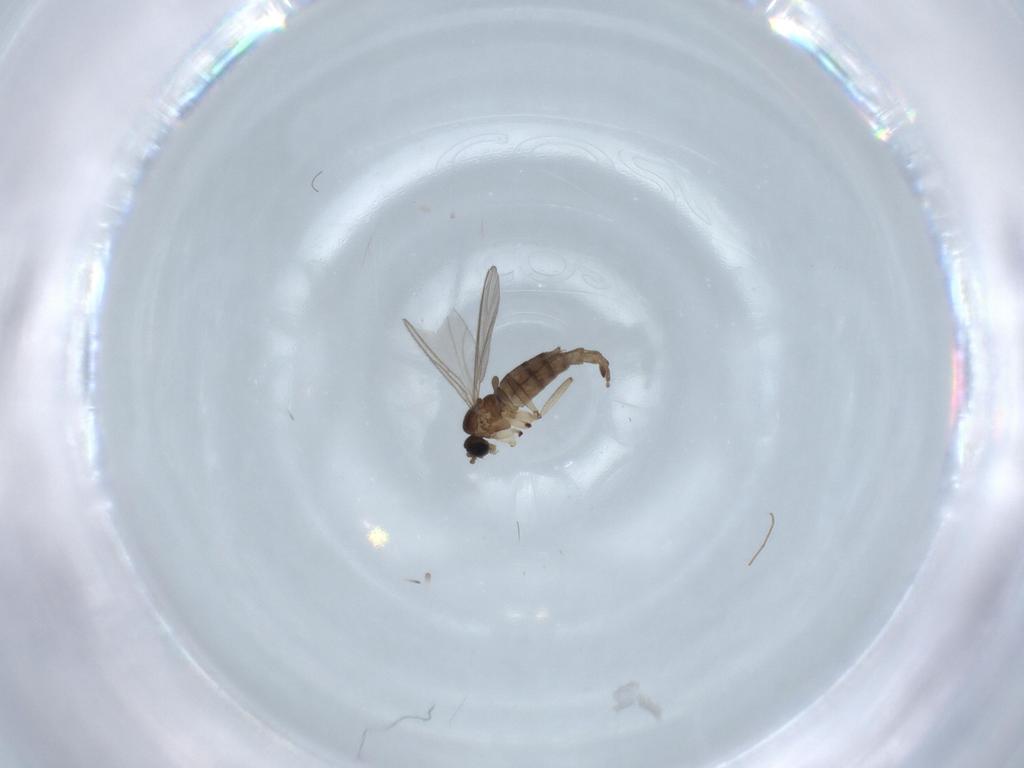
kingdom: Animalia
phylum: Arthropoda
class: Insecta
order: Diptera
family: Sciaridae
